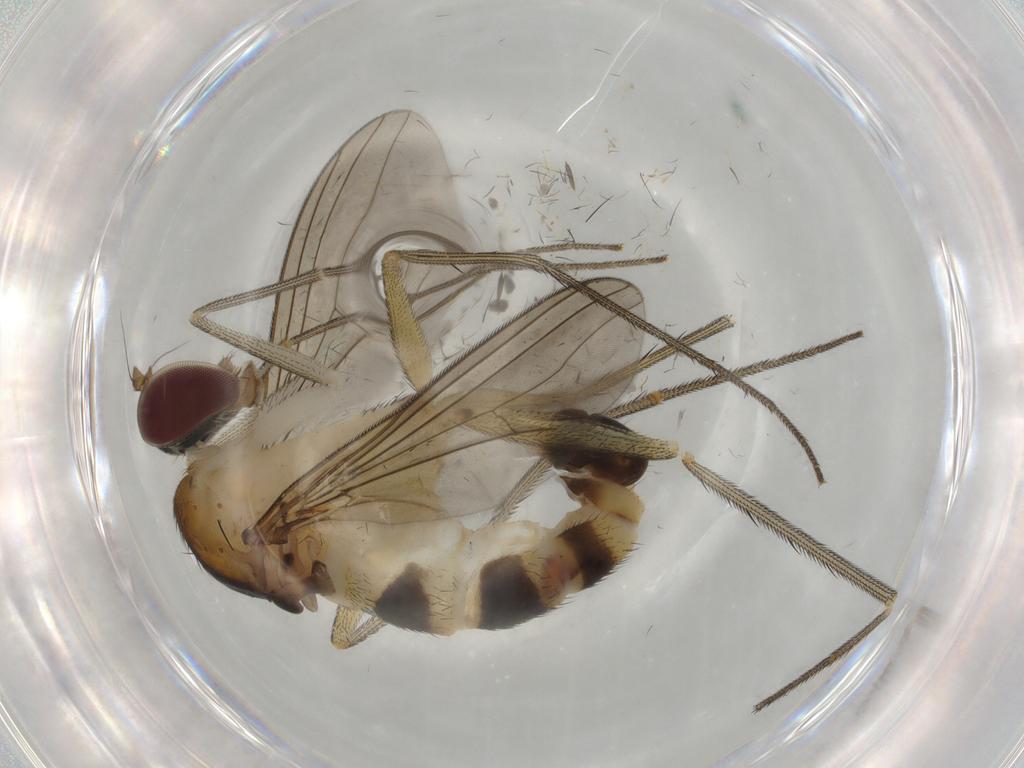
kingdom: Animalia
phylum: Arthropoda
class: Insecta
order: Diptera
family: Dolichopodidae
